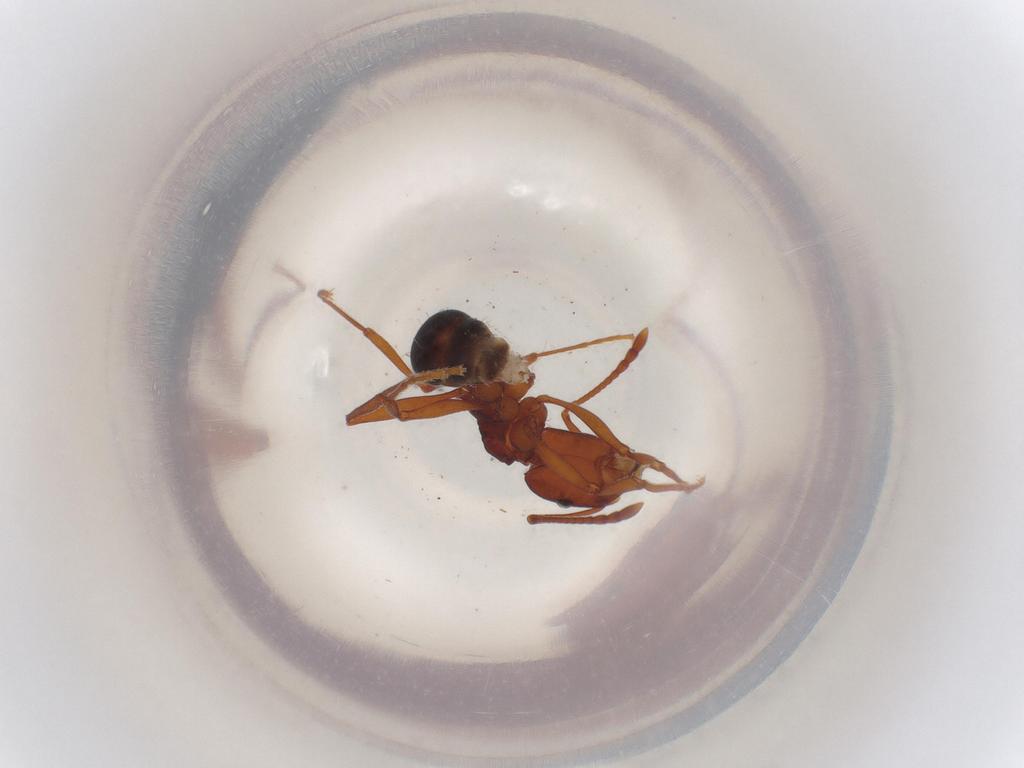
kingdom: Animalia
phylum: Arthropoda
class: Insecta
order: Hymenoptera
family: Formicidae
